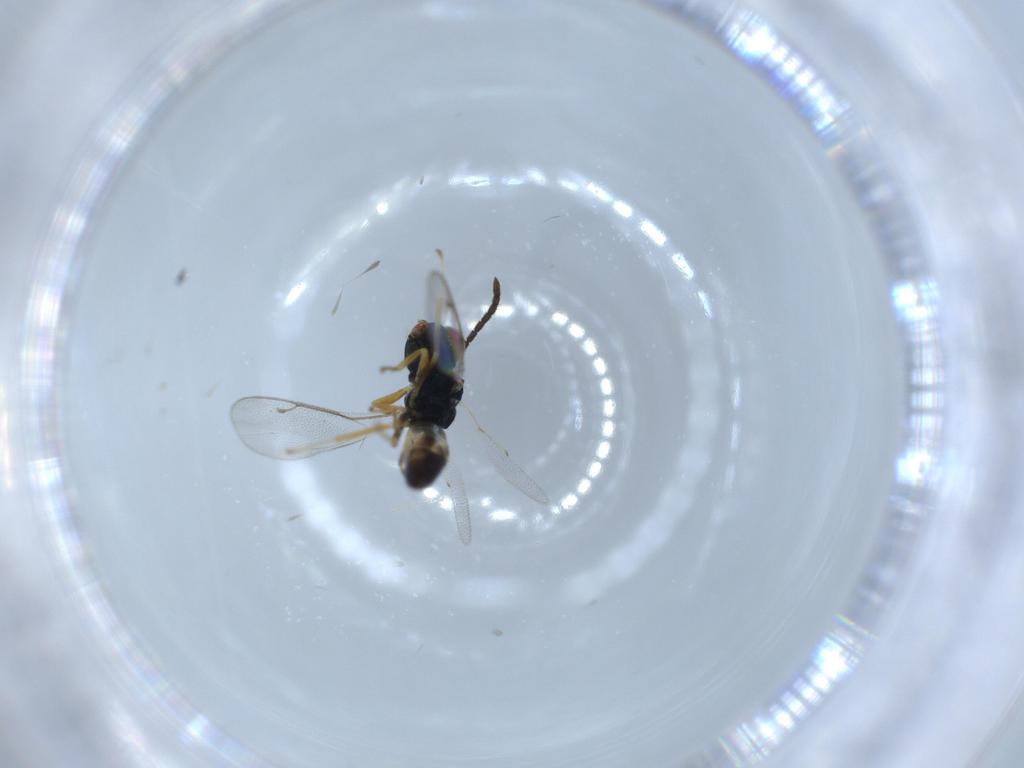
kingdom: Animalia
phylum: Arthropoda
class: Insecta
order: Hymenoptera
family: Pteromalidae
